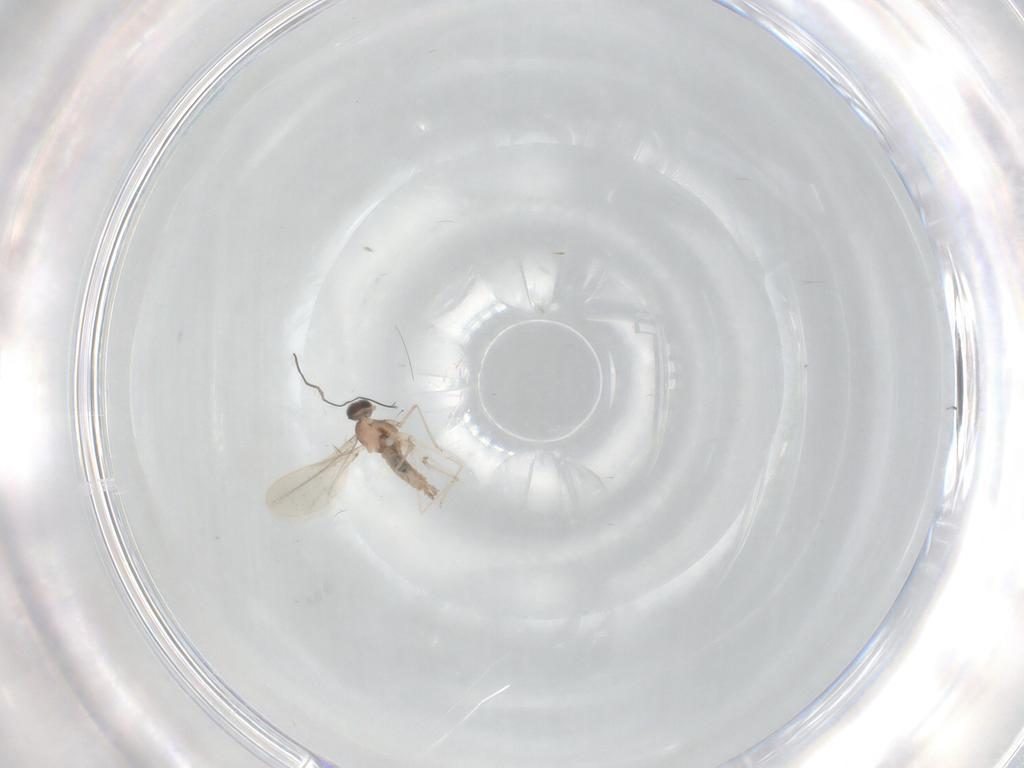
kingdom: Animalia
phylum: Arthropoda
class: Insecta
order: Diptera
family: Cecidomyiidae
